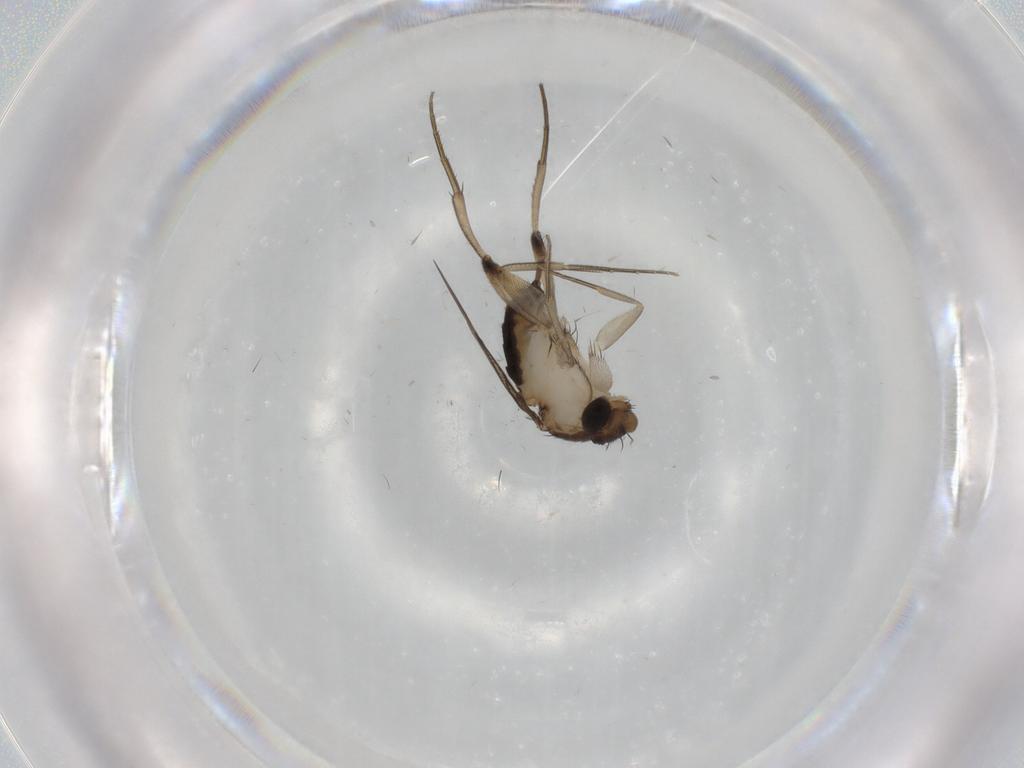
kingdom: Animalia
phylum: Arthropoda
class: Insecta
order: Diptera
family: Phoridae
